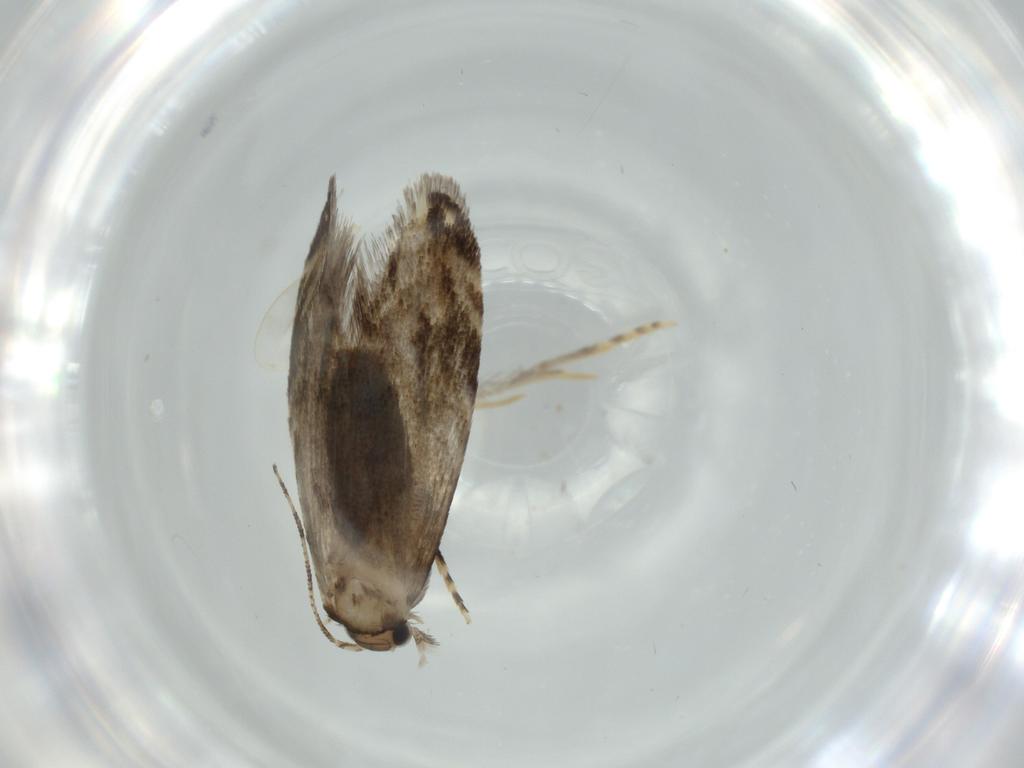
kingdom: Animalia
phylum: Arthropoda
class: Insecta
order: Lepidoptera
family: Tineidae
